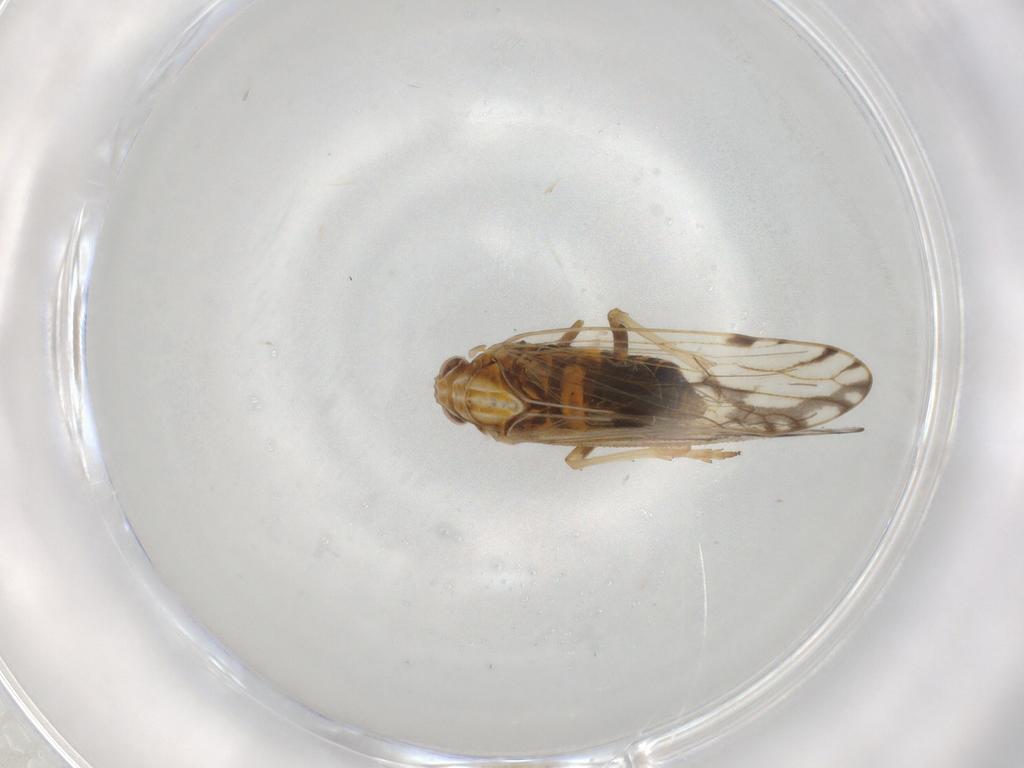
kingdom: Animalia
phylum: Arthropoda
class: Insecta
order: Hemiptera
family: Delphacidae
